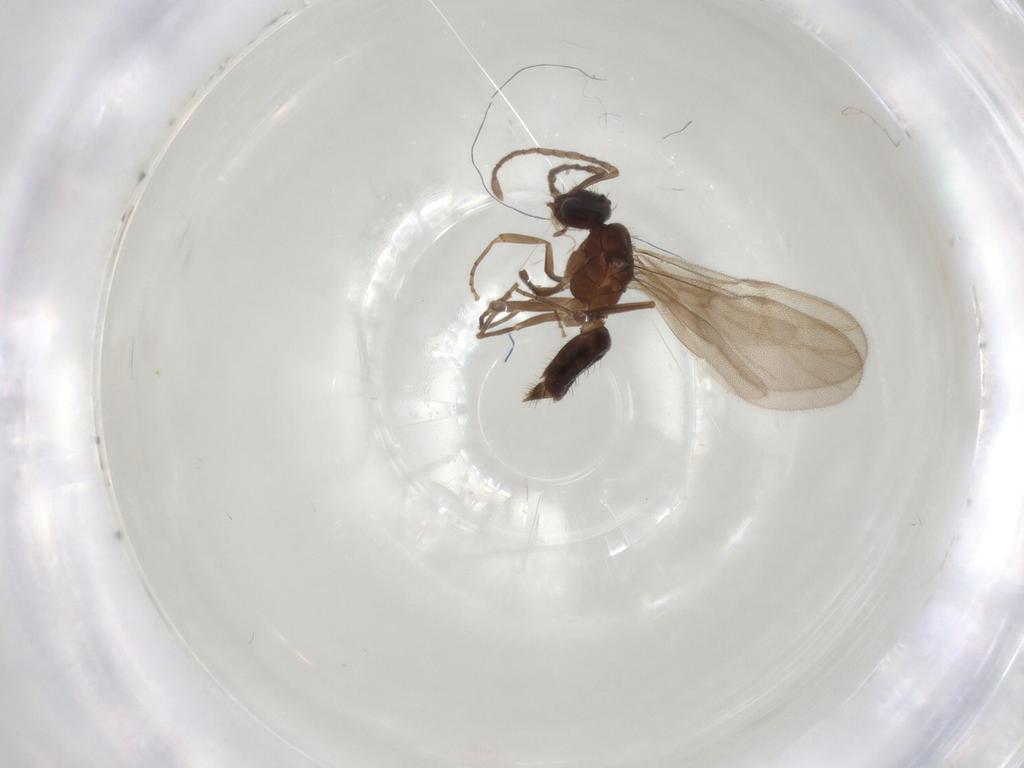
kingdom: Animalia
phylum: Arthropoda
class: Insecta
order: Hymenoptera
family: Formicidae
